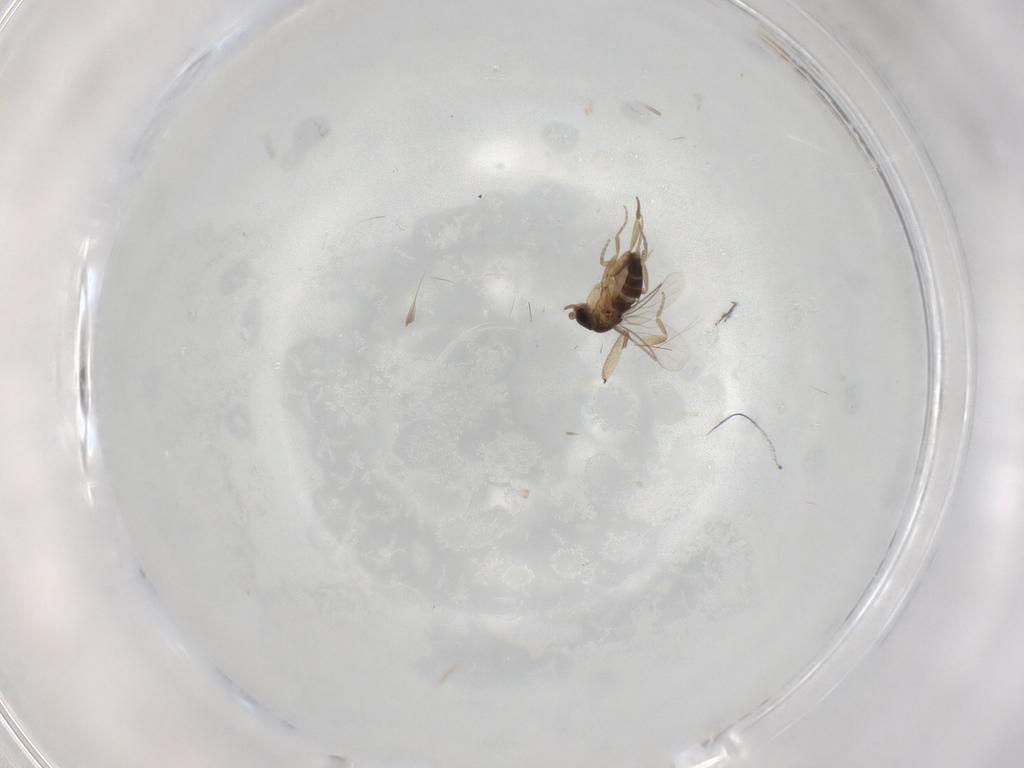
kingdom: Animalia
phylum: Arthropoda
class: Insecta
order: Diptera
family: Sciaridae
